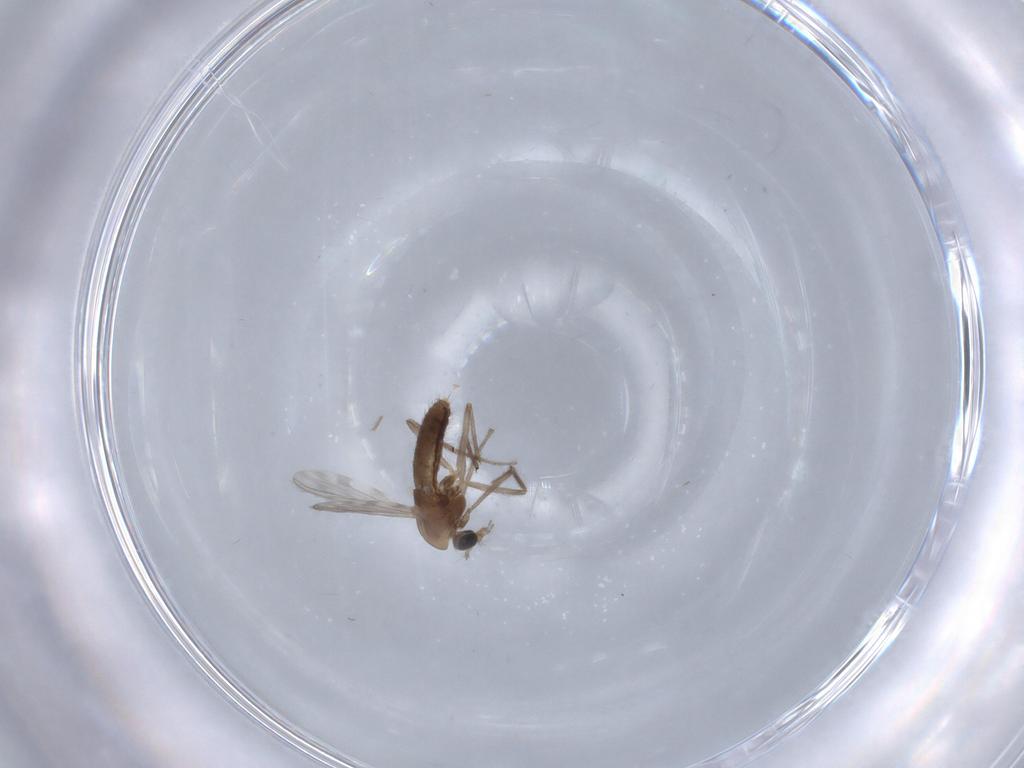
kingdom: Animalia
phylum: Arthropoda
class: Insecta
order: Diptera
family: Chironomidae
